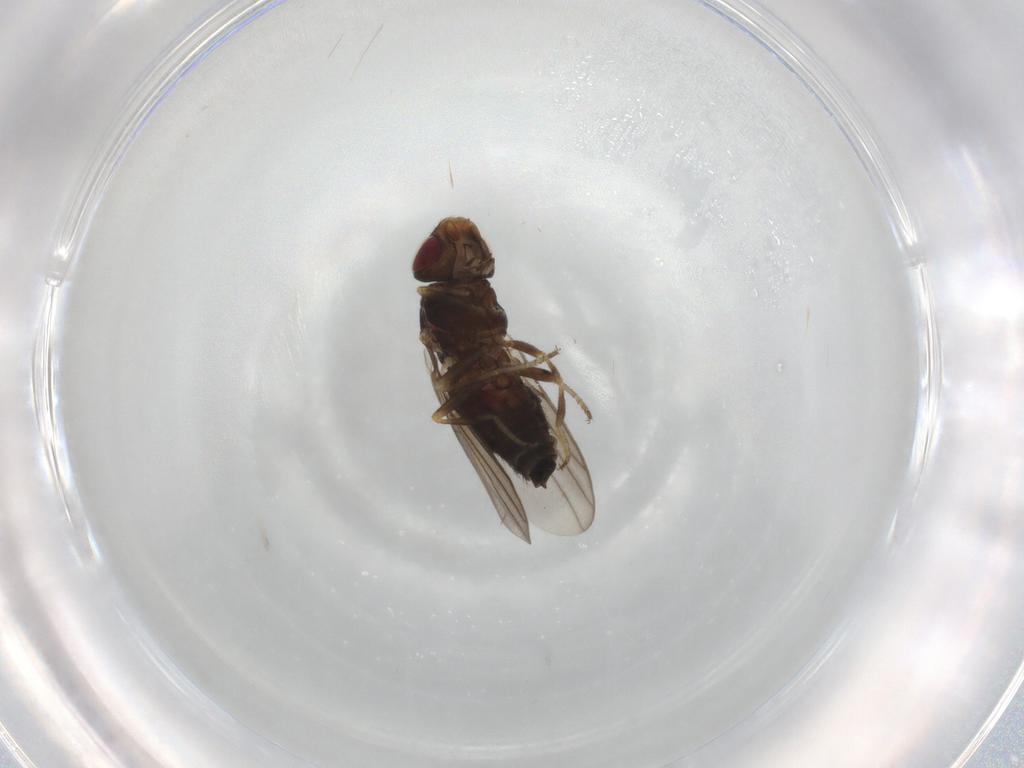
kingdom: Animalia
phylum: Arthropoda
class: Insecta
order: Diptera
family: Chloropidae
